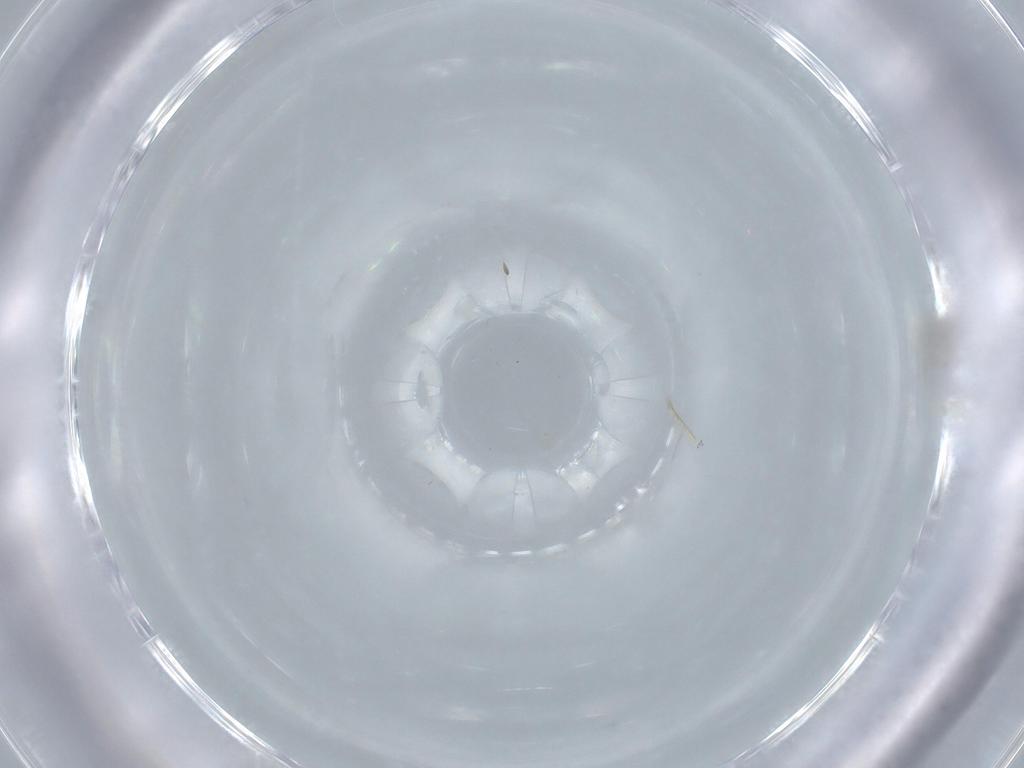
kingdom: Animalia
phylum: Arthropoda
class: Collembola
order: Entomobryomorpha
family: Entomobryidae
